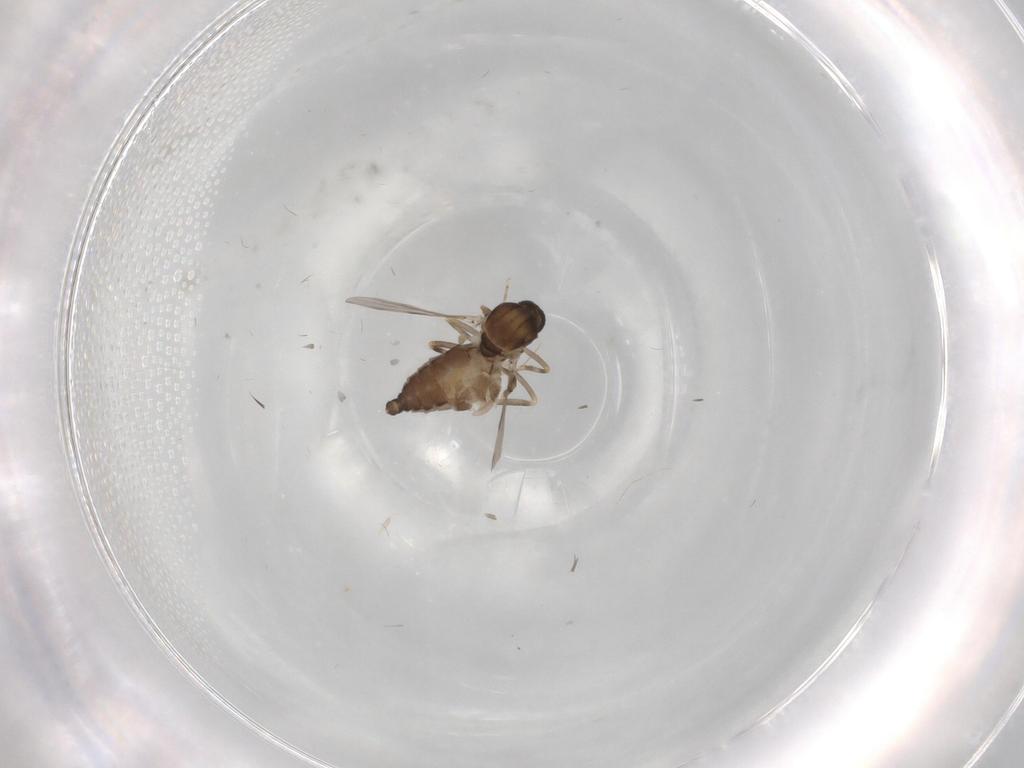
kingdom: Animalia
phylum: Arthropoda
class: Insecta
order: Diptera
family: Ceratopogonidae
